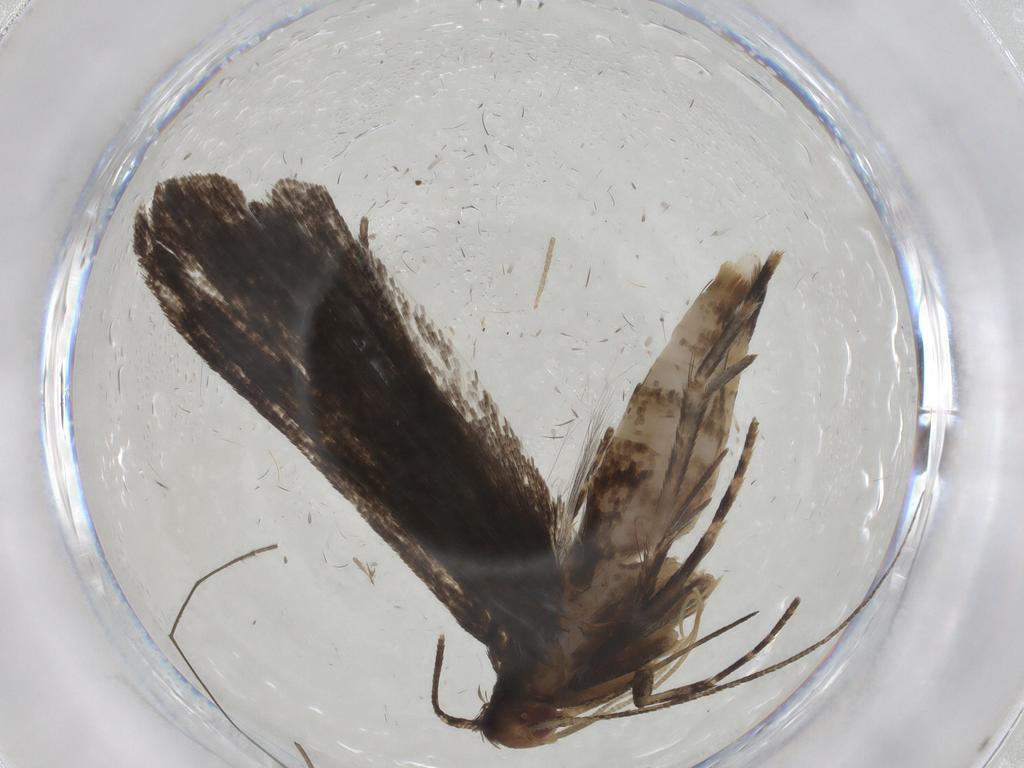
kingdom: Animalia
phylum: Arthropoda
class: Insecta
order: Lepidoptera
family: Gelechiidae
